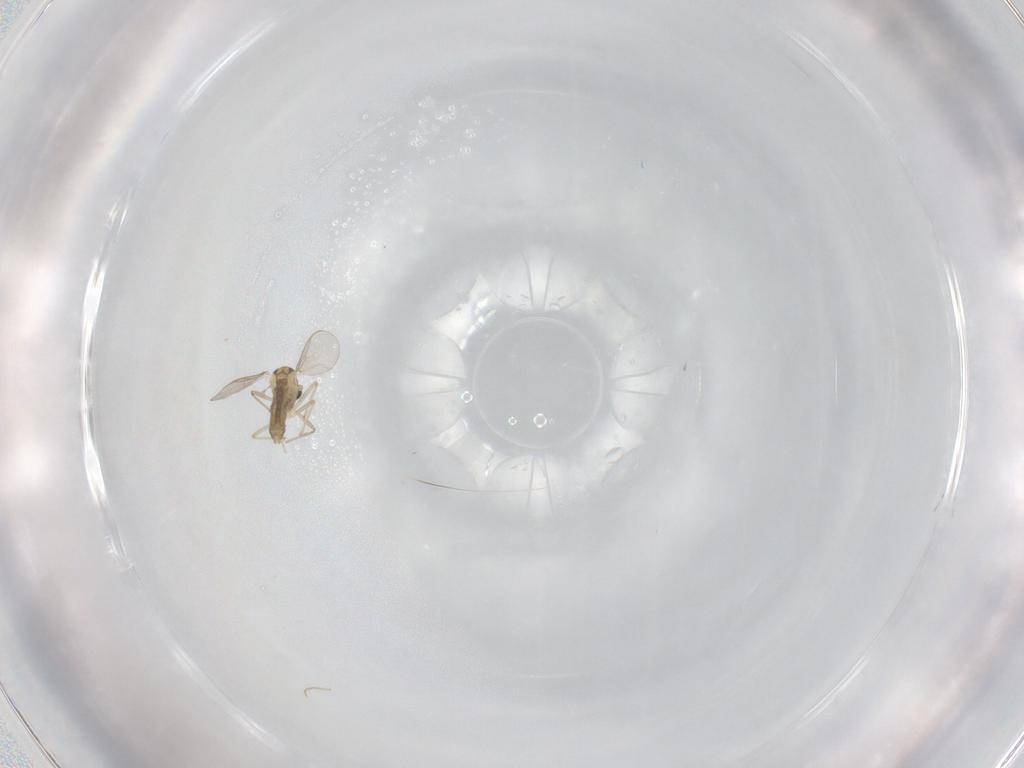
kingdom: Animalia
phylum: Arthropoda
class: Insecta
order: Diptera
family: Chironomidae
